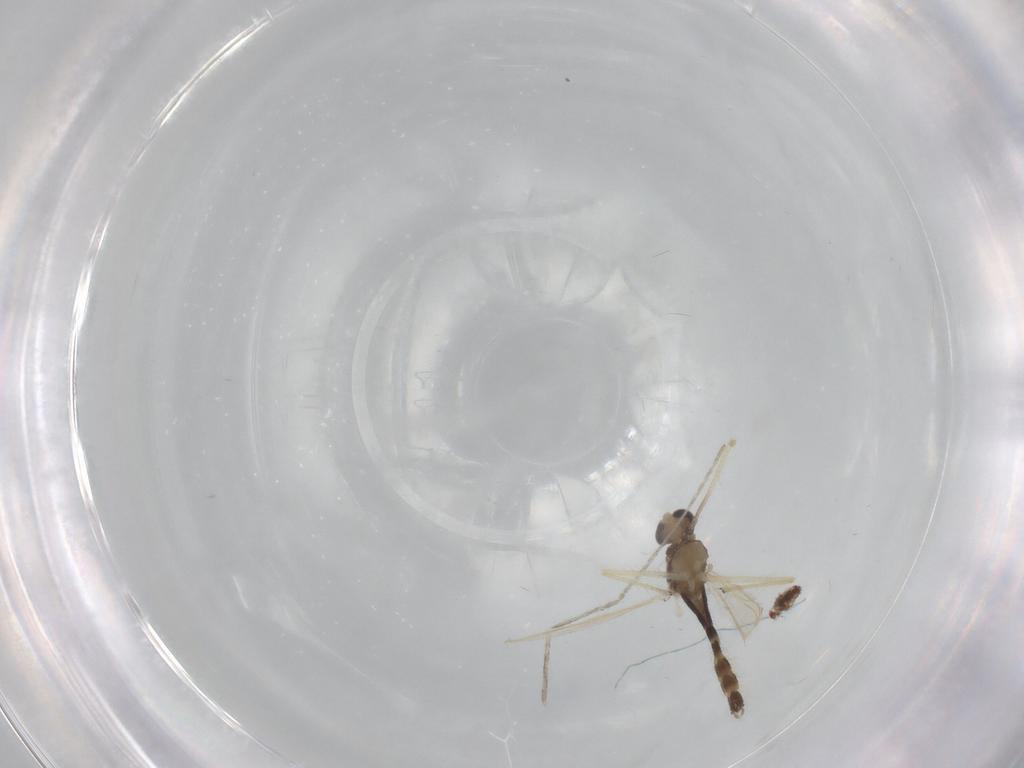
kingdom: Animalia
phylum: Arthropoda
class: Insecta
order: Diptera
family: Chironomidae
